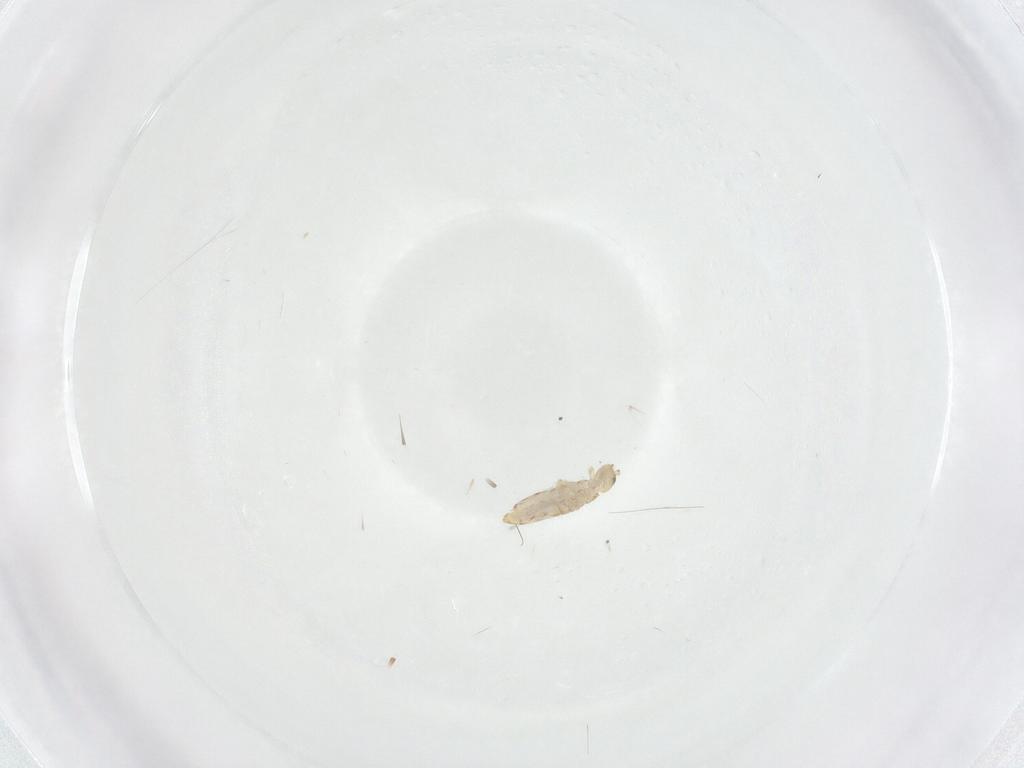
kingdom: Animalia
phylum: Arthropoda
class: Collembola
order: Entomobryomorpha
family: Entomobryidae
